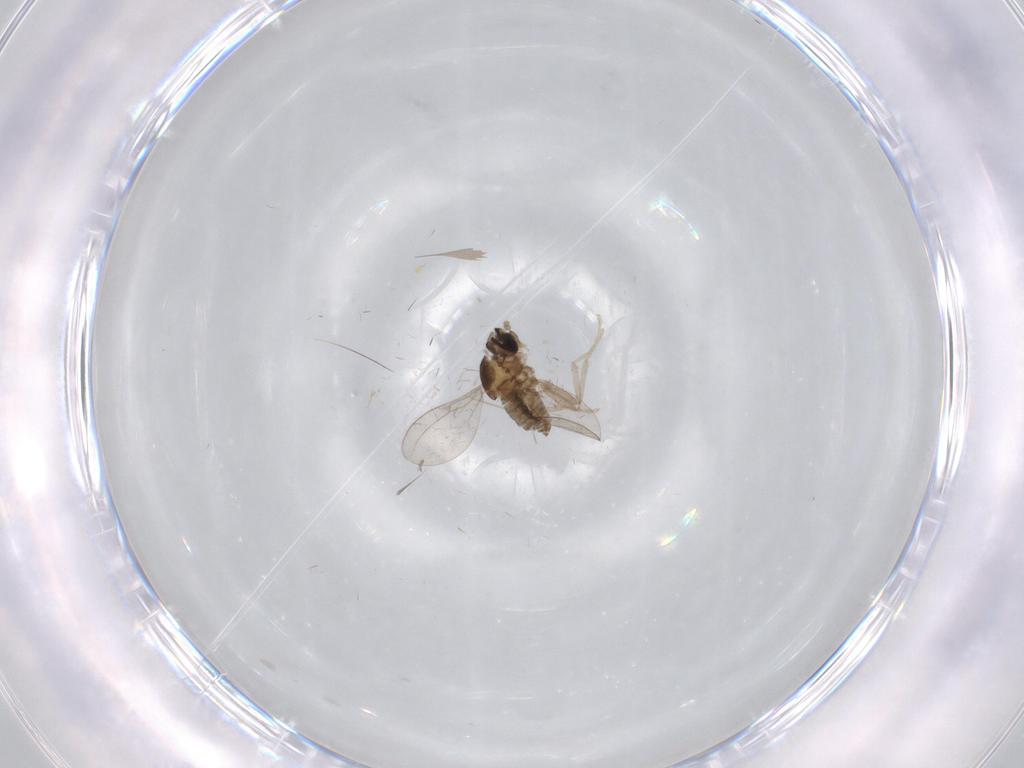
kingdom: Animalia
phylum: Arthropoda
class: Insecta
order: Diptera
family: Cecidomyiidae
